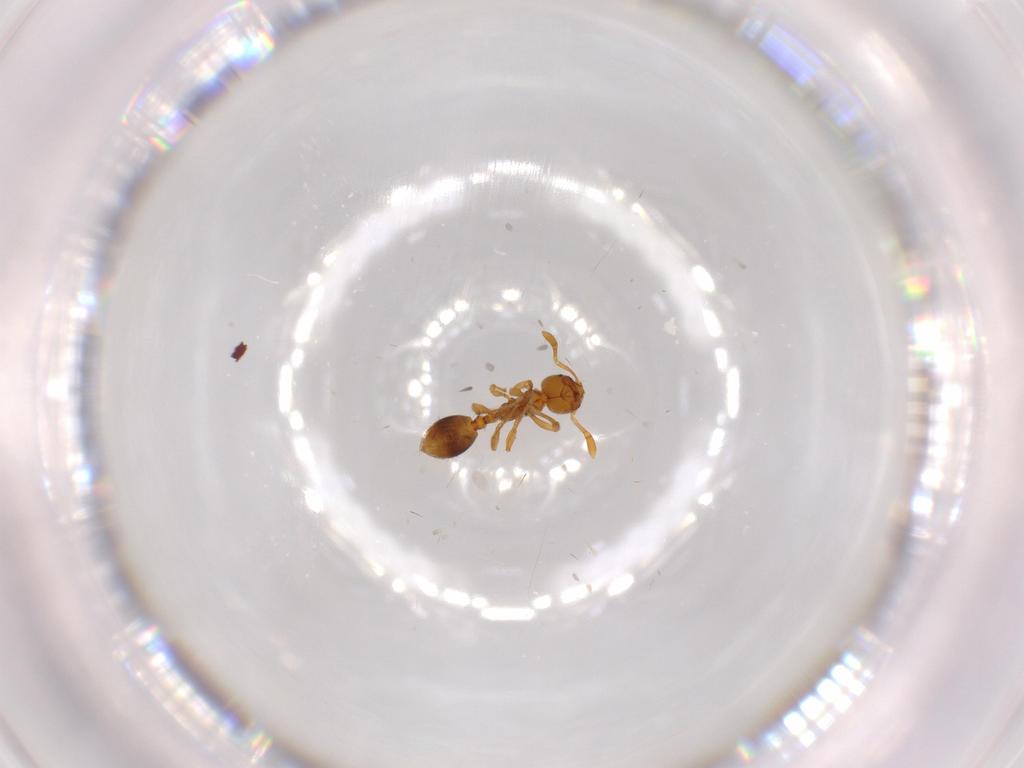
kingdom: Animalia
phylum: Arthropoda
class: Insecta
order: Hymenoptera
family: Formicidae
